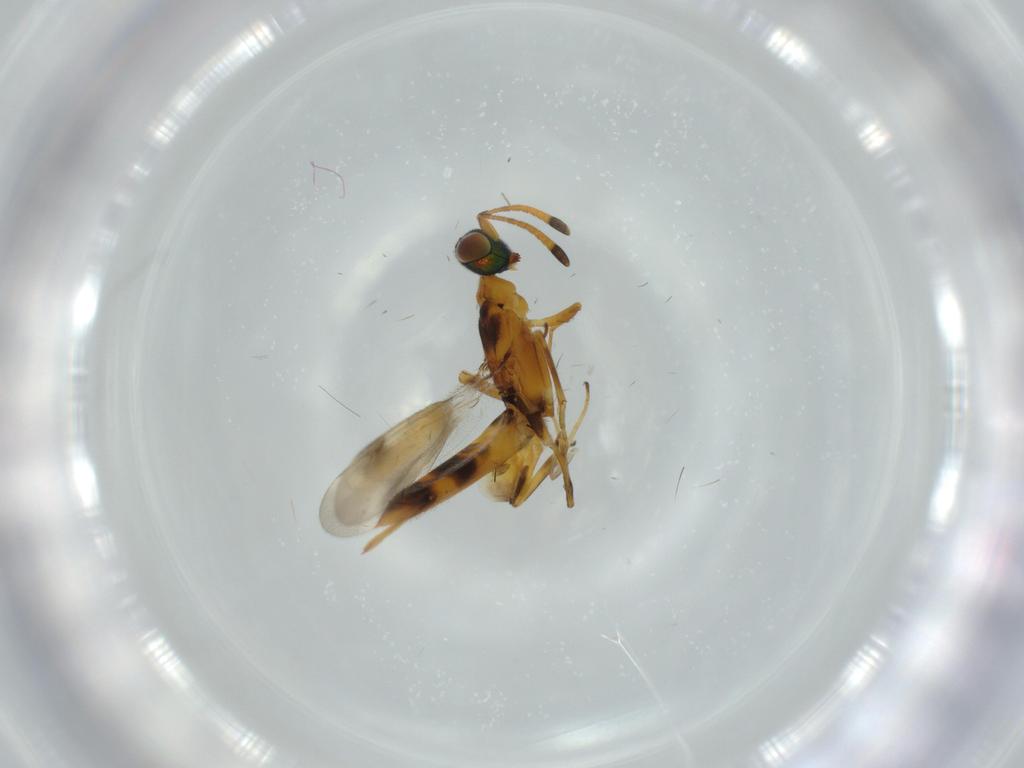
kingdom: Animalia
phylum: Arthropoda
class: Insecta
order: Hymenoptera
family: Eupelmidae
